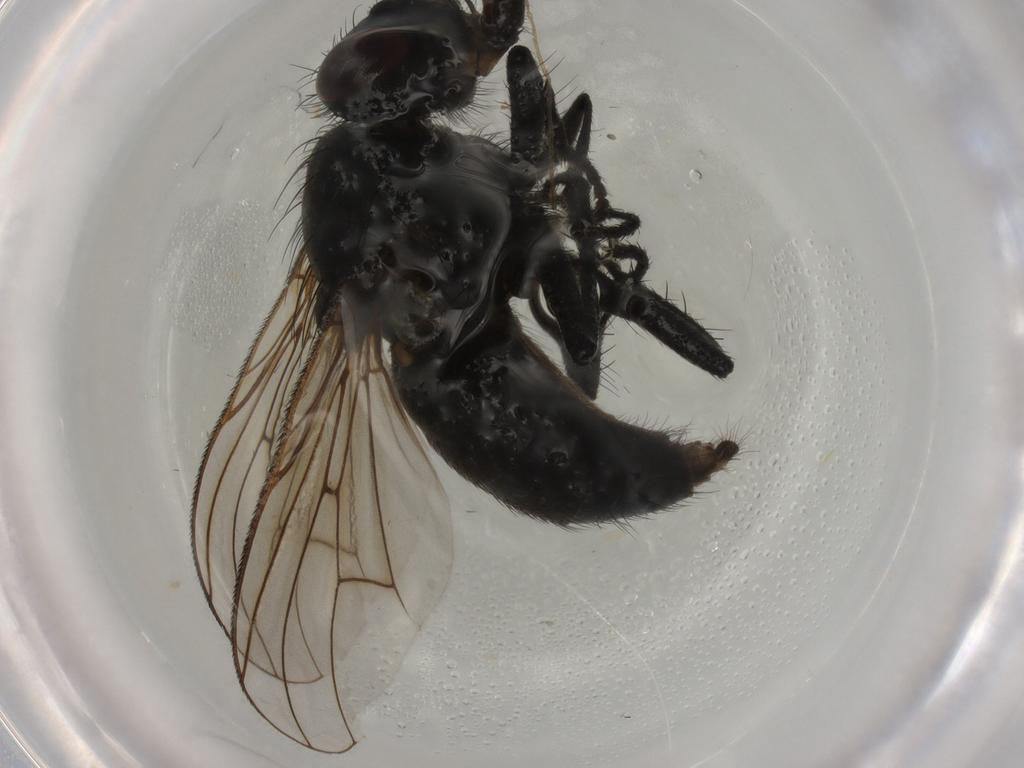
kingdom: Animalia
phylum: Arthropoda
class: Insecta
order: Diptera
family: Muscidae
